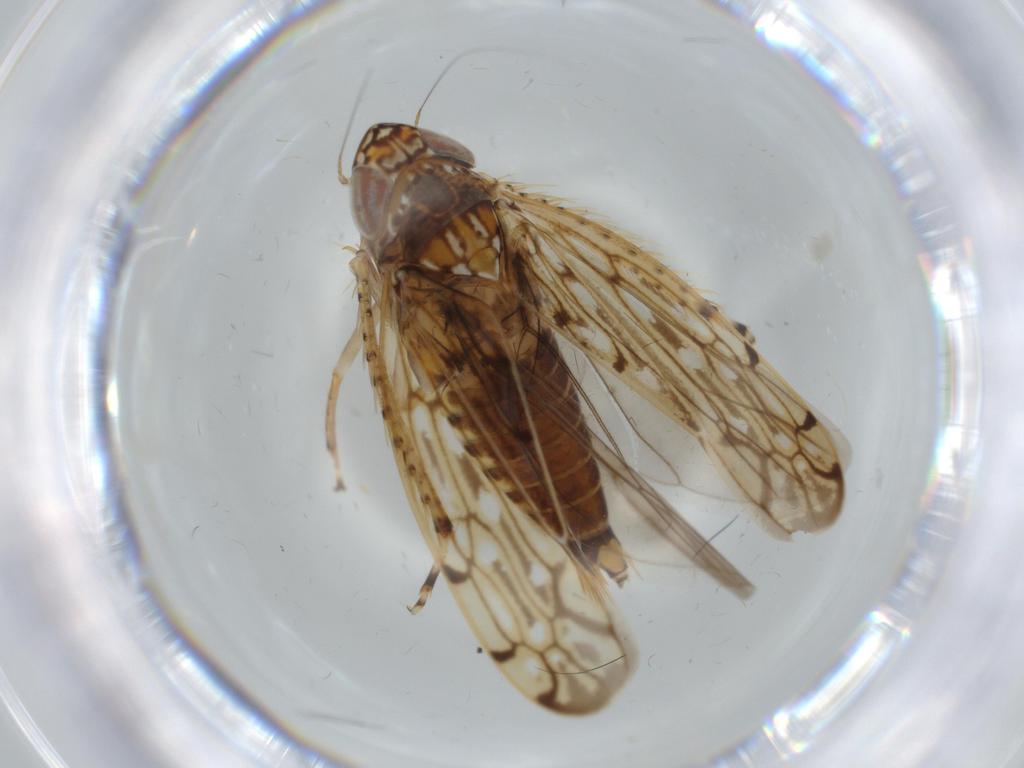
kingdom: Animalia
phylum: Arthropoda
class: Insecta
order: Hemiptera
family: Cicadellidae
